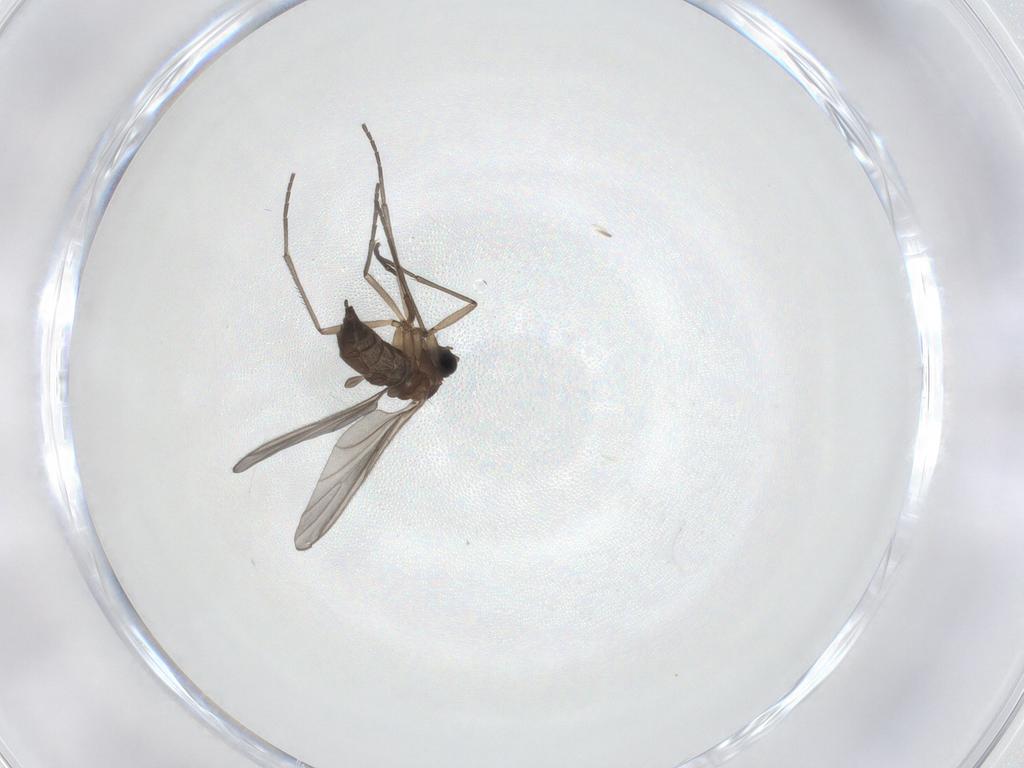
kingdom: Animalia
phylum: Arthropoda
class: Insecta
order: Diptera
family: Sciaridae
